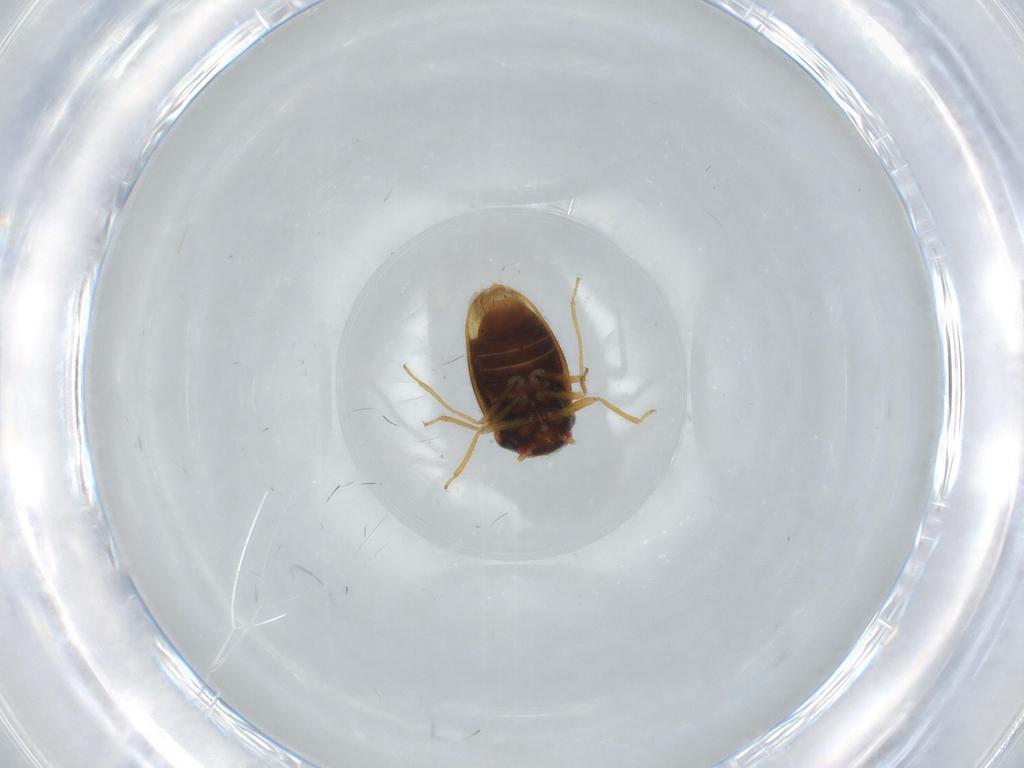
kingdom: Animalia
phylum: Arthropoda
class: Insecta
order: Hemiptera
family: Schizopteridae
